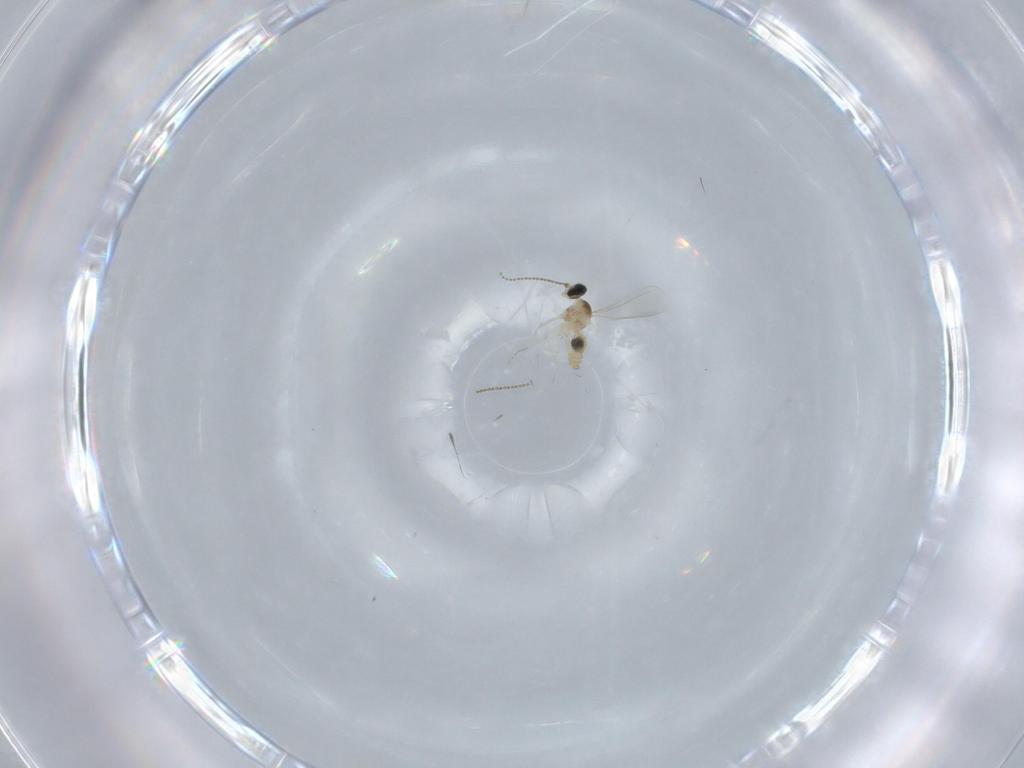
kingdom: Animalia
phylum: Arthropoda
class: Insecta
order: Diptera
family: Cecidomyiidae
